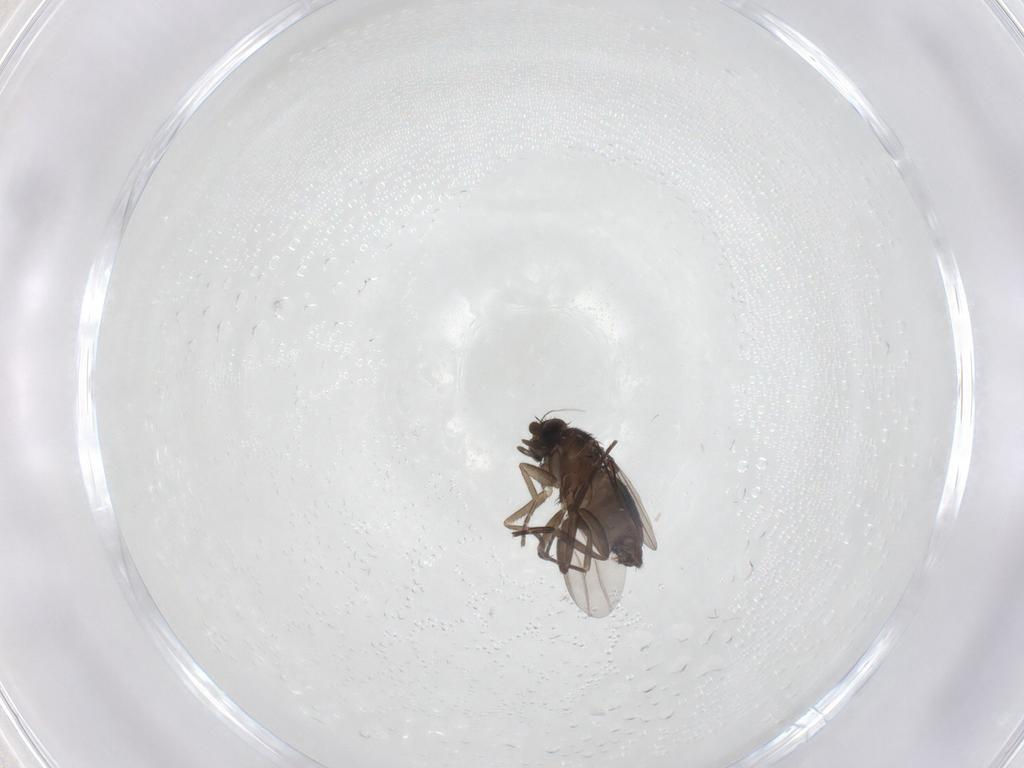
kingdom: Animalia
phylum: Arthropoda
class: Insecta
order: Diptera
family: Phoridae
